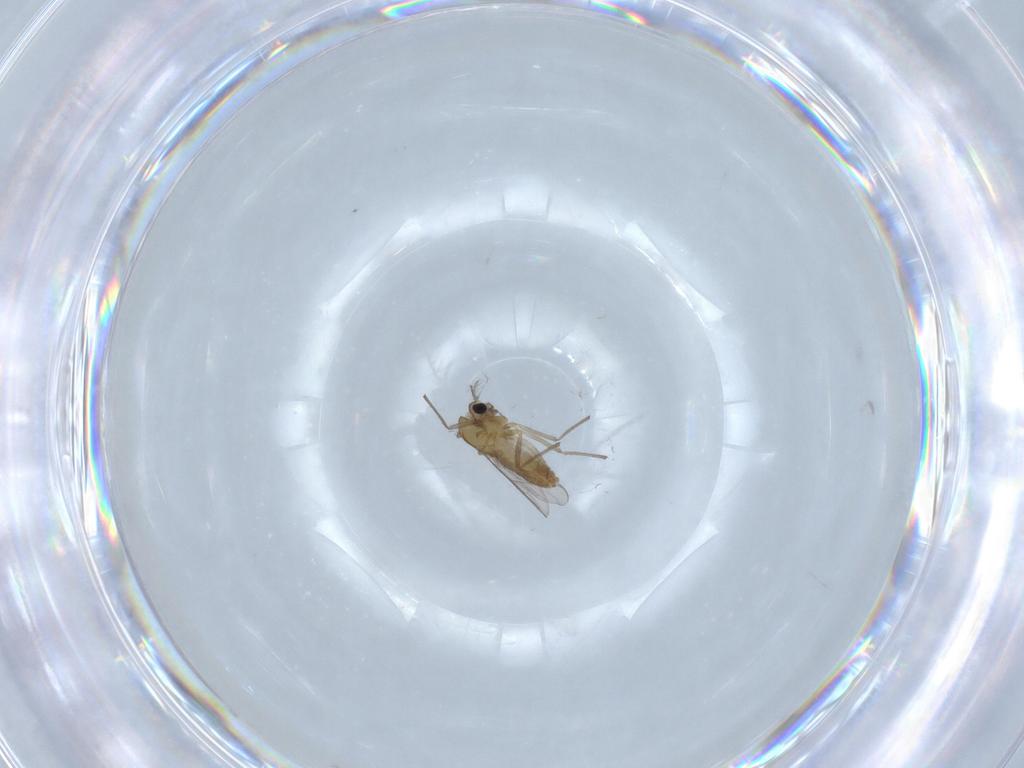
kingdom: Animalia
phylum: Arthropoda
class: Insecta
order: Diptera
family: Chironomidae
